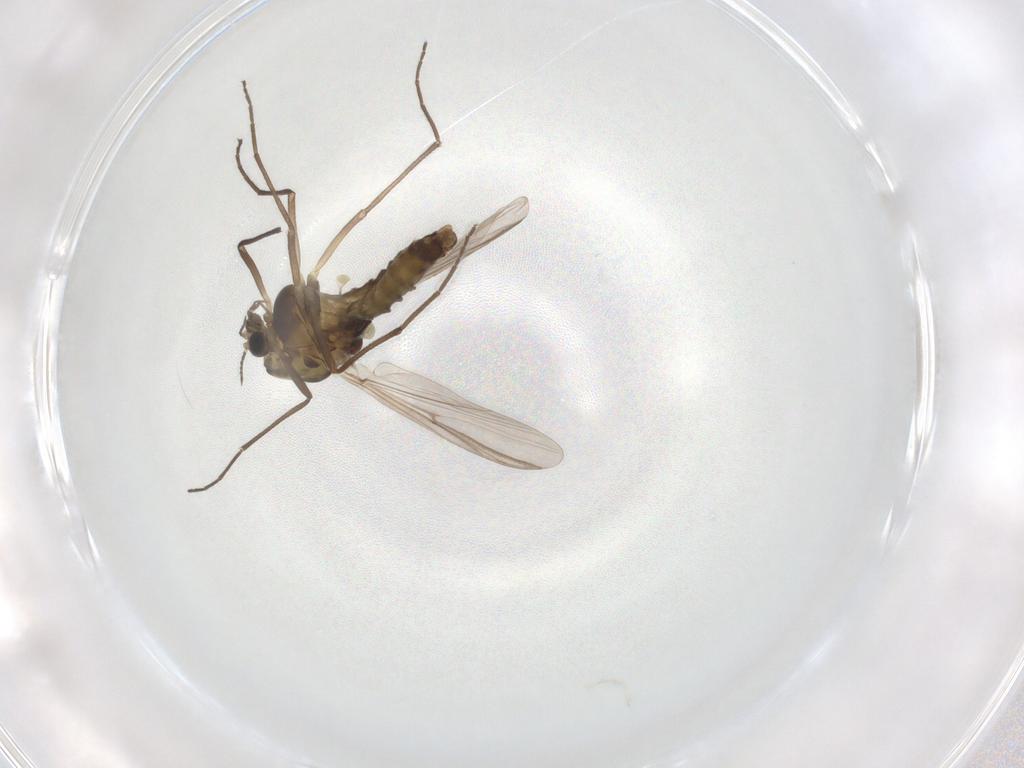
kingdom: Animalia
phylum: Arthropoda
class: Insecta
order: Diptera
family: Chironomidae
